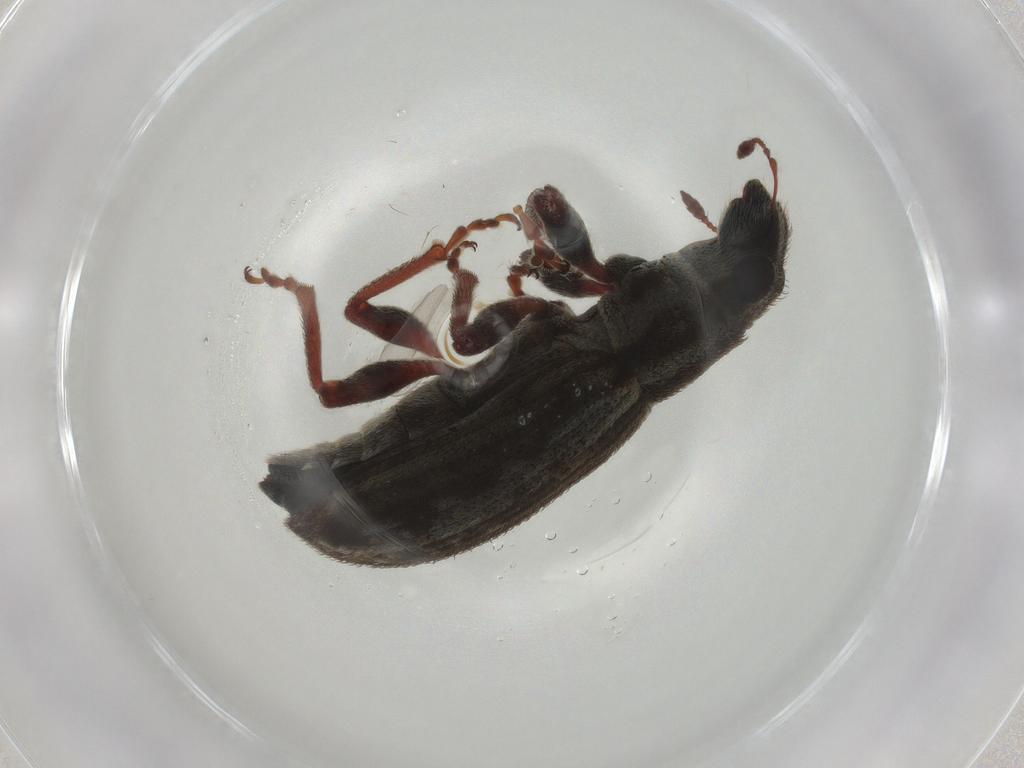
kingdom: Animalia
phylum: Arthropoda
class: Insecta
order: Coleoptera
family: Curculionidae
